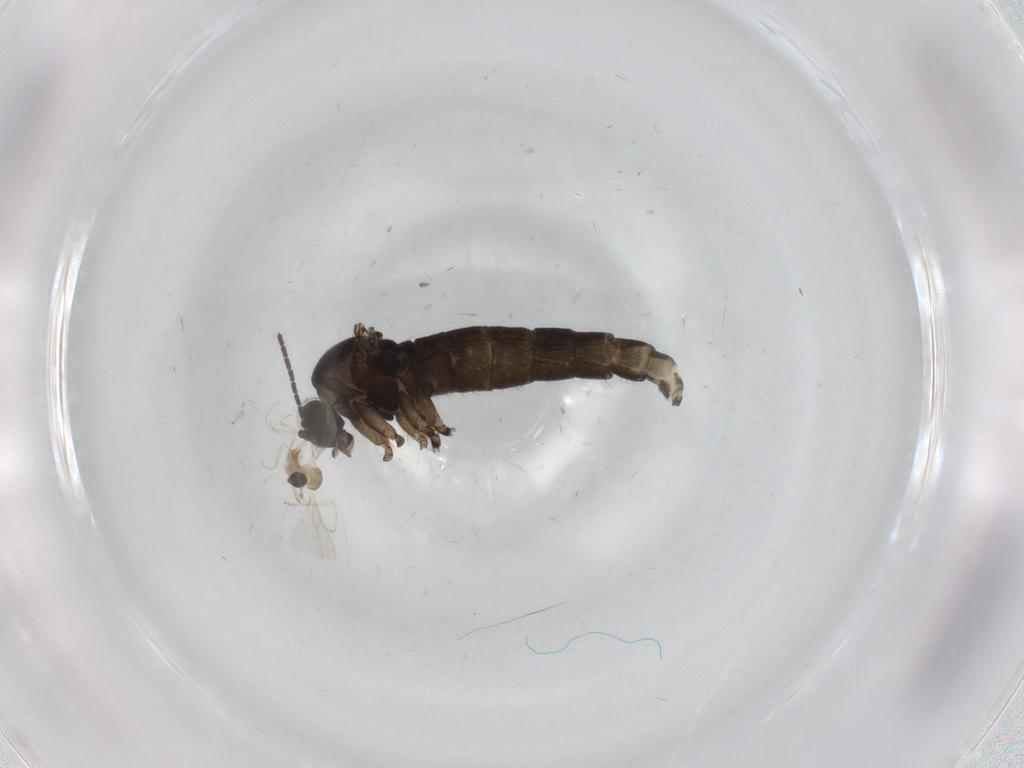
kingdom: Animalia
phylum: Arthropoda
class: Insecta
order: Diptera
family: Sciaridae
